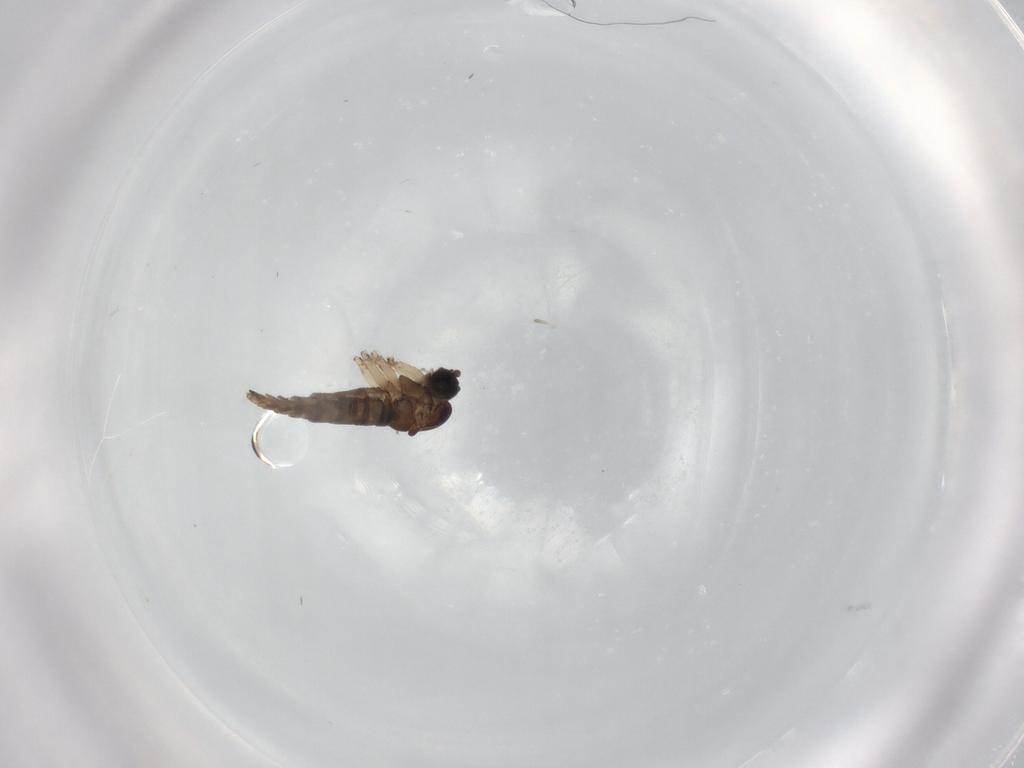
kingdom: Animalia
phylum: Arthropoda
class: Insecta
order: Diptera
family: Sciaridae
